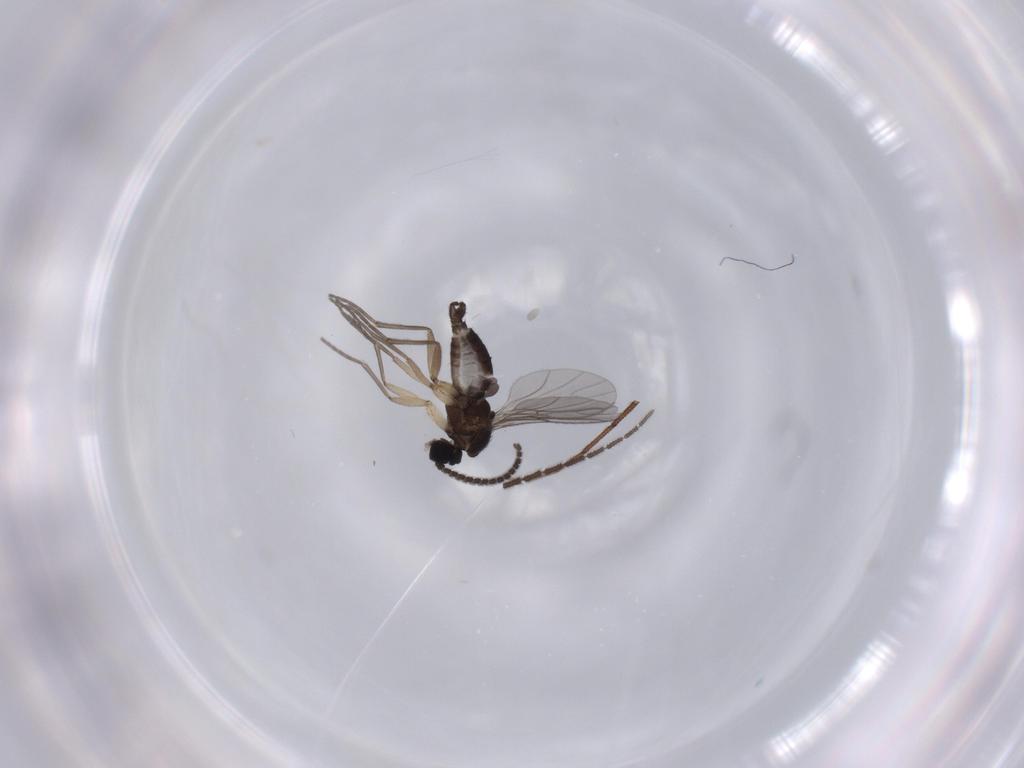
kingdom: Animalia
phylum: Arthropoda
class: Insecta
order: Diptera
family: Sciaridae
